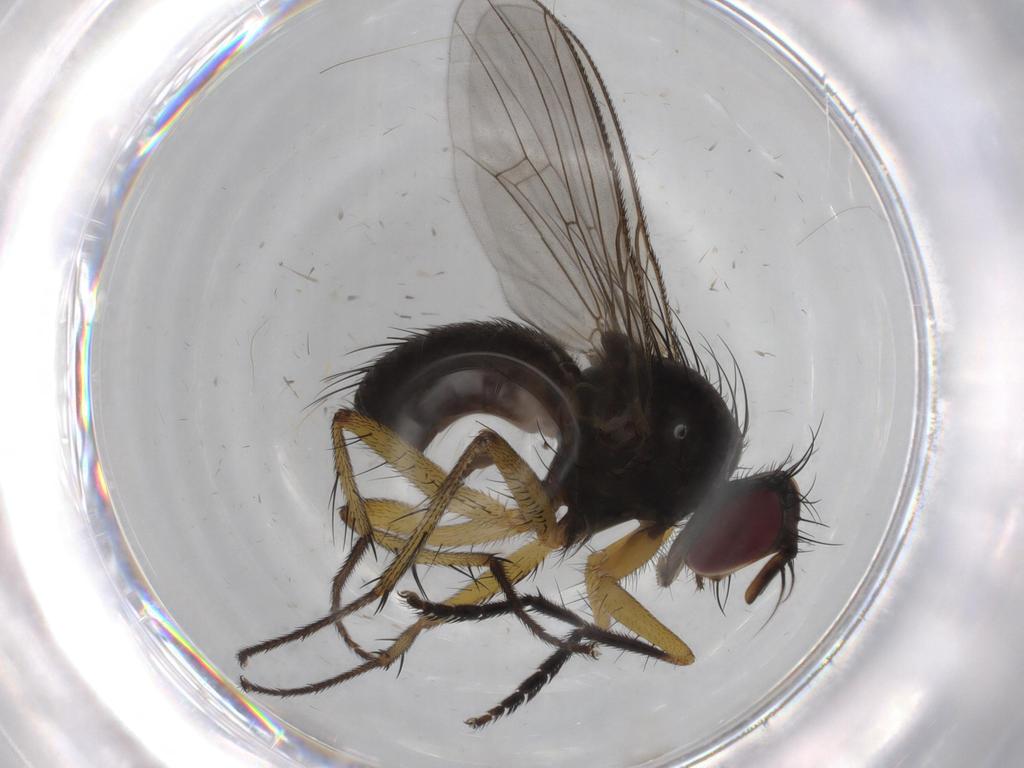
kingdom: Animalia
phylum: Arthropoda
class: Insecta
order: Diptera
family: Muscidae
